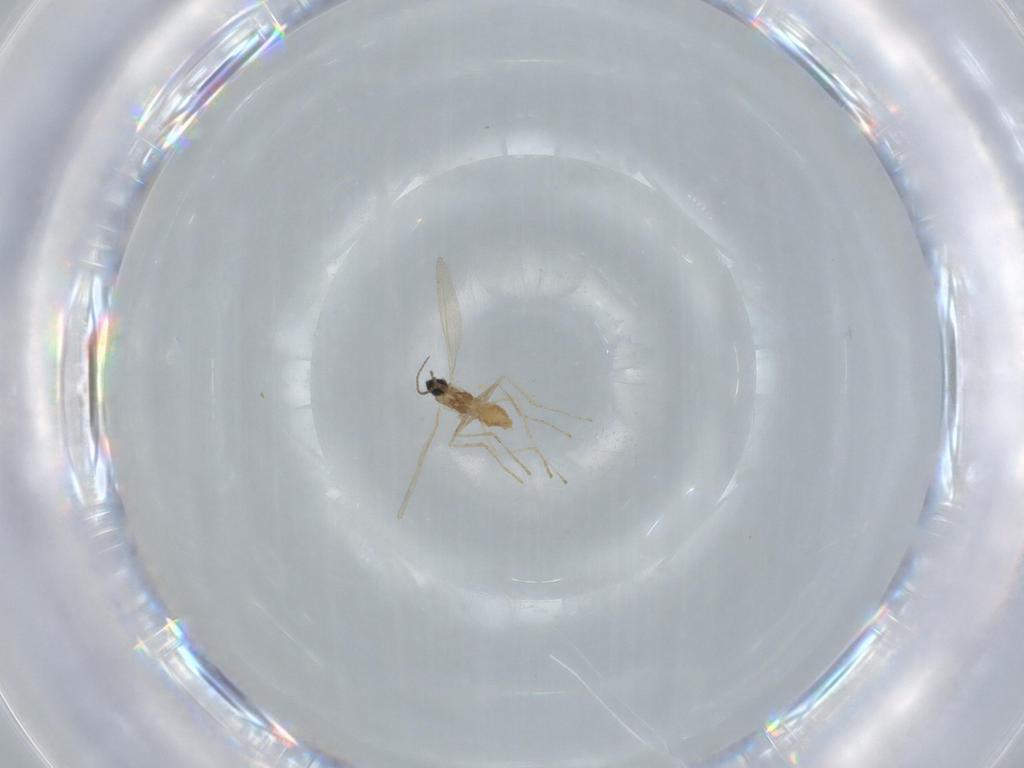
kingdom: Animalia
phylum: Arthropoda
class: Insecta
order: Diptera
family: Cecidomyiidae
